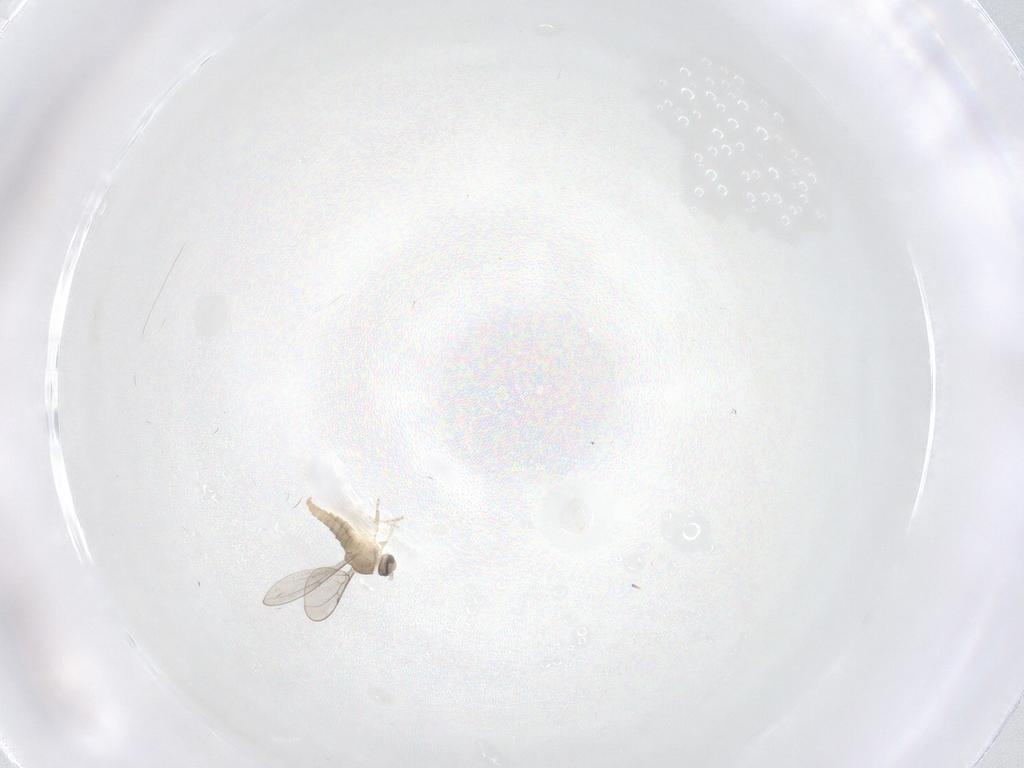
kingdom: Animalia
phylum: Arthropoda
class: Insecta
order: Diptera
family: Cecidomyiidae
